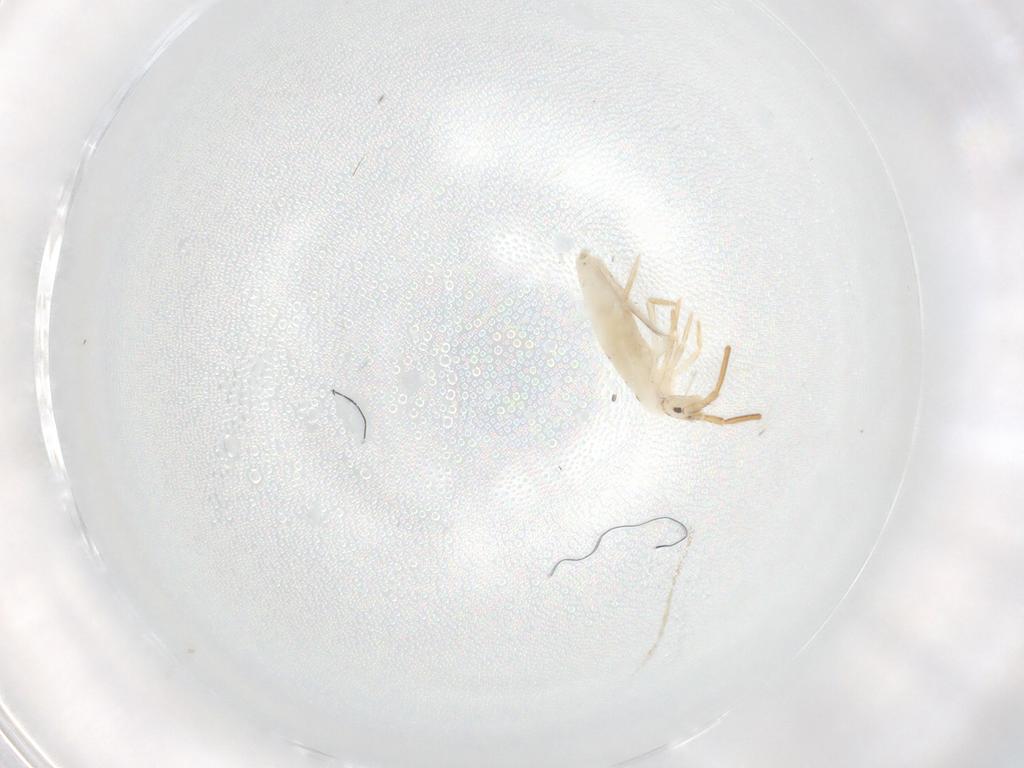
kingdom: Animalia
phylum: Arthropoda
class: Collembola
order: Entomobryomorpha
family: Entomobryidae
